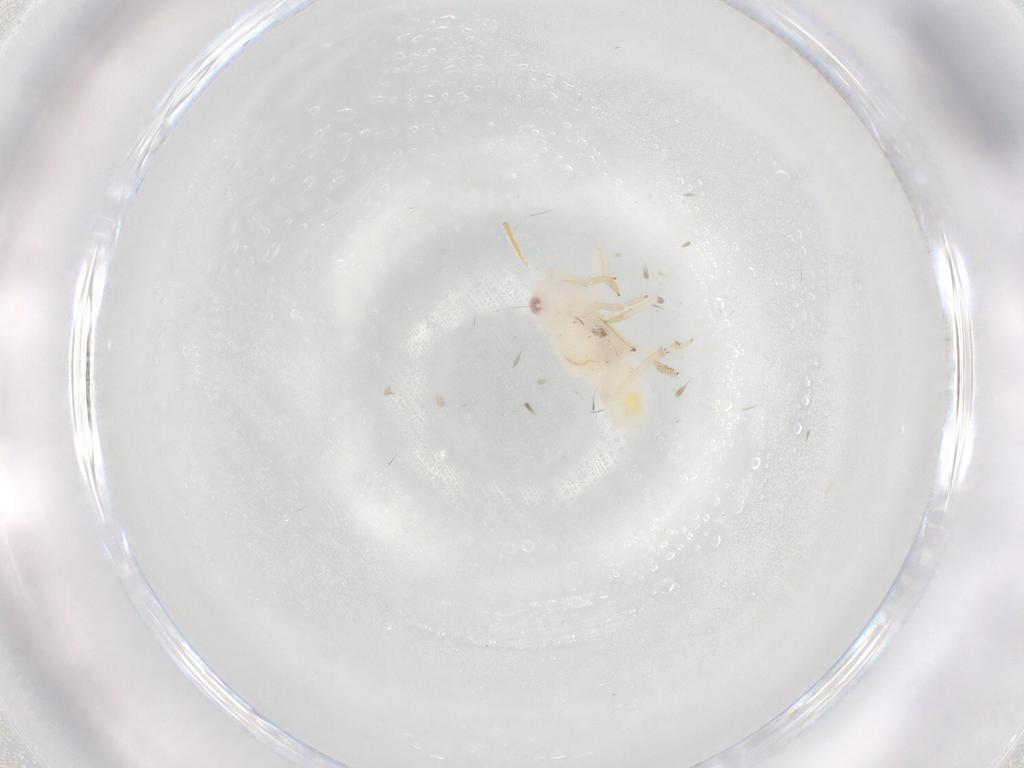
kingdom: Animalia
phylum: Arthropoda
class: Insecta
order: Hemiptera
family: Tropiduchidae
